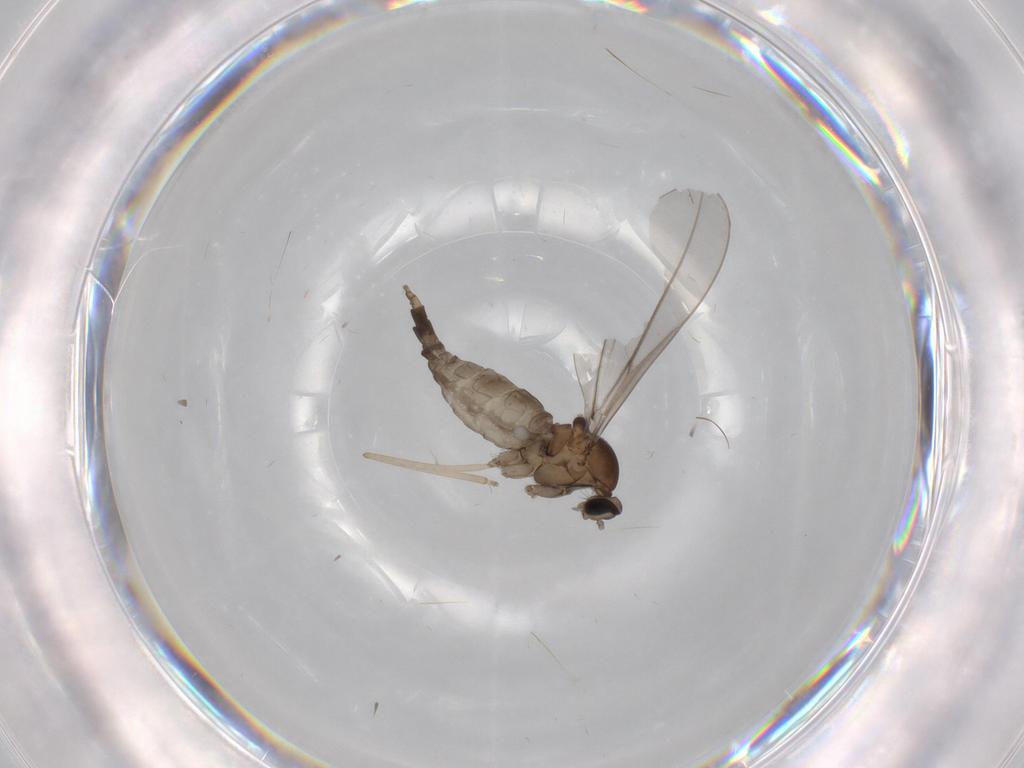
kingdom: Animalia
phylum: Arthropoda
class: Insecta
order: Diptera
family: Cecidomyiidae
